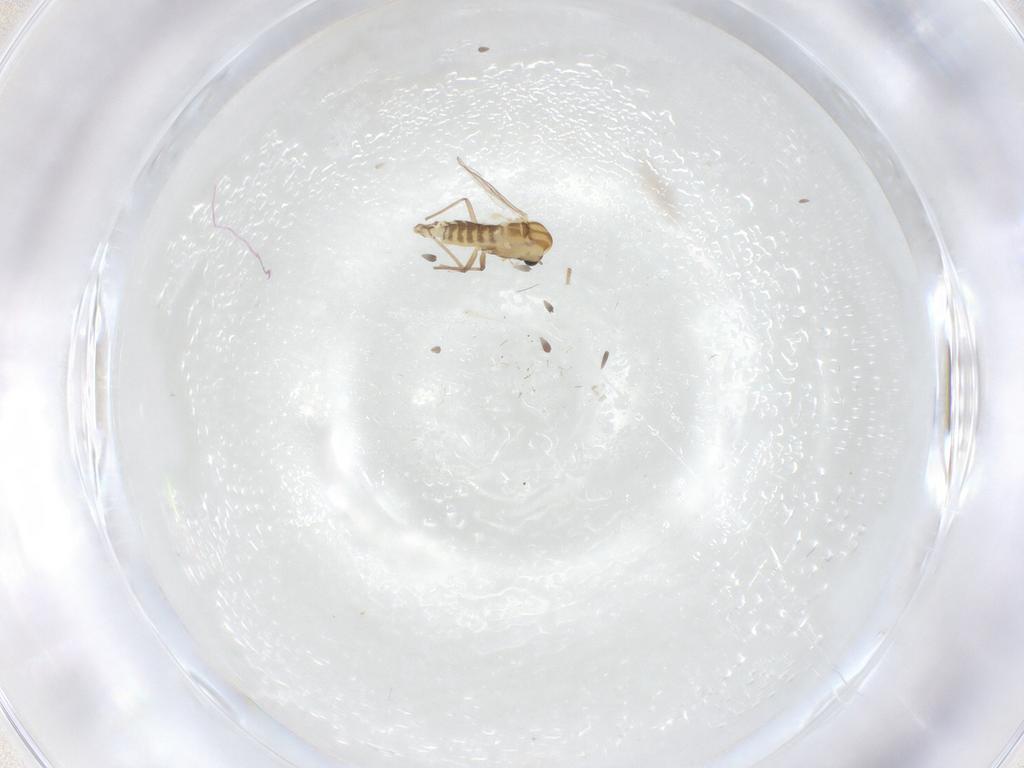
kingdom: Animalia
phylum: Arthropoda
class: Insecta
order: Diptera
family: Chironomidae
